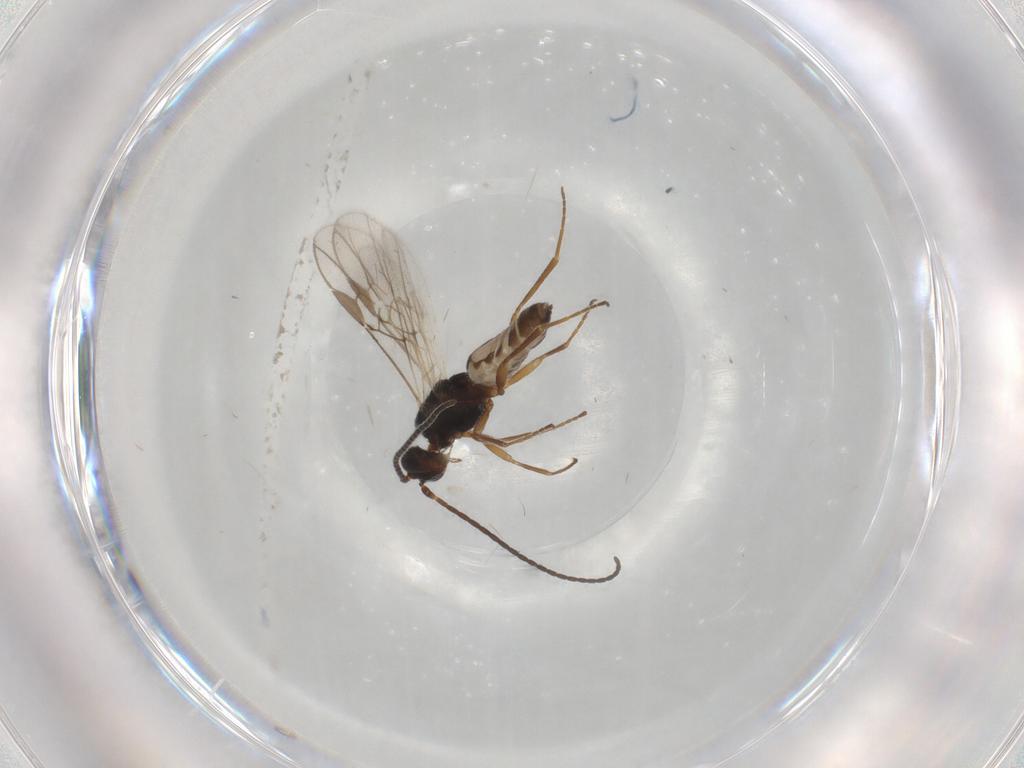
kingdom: Animalia
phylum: Arthropoda
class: Insecta
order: Hymenoptera
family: Braconidae
